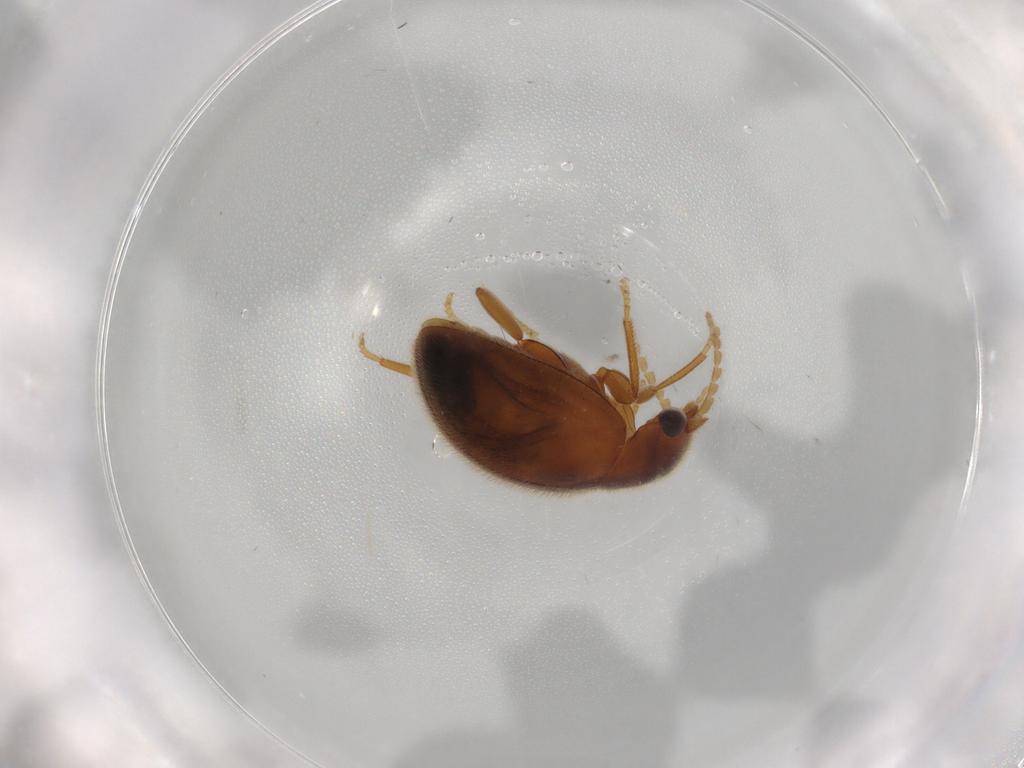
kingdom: Animalia
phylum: Arthropoda
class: Insecta
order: Coleoptera
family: Scirtidae
